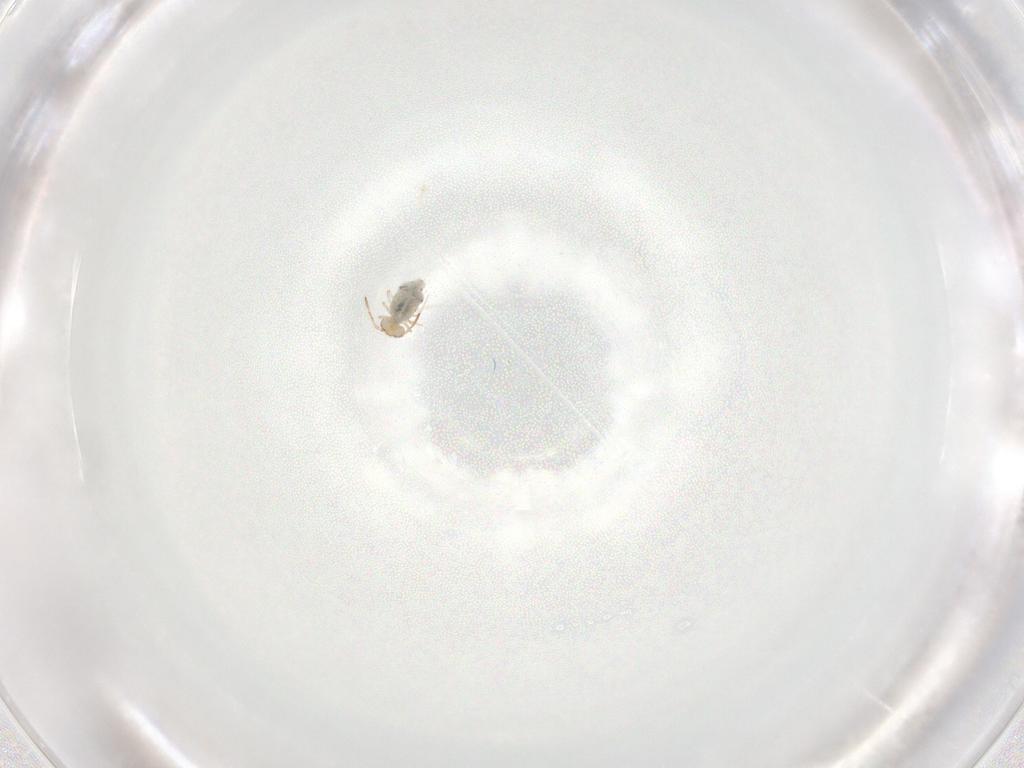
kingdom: Animalia
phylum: Arthropoda
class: Collembola
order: Symphypleona
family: Bourletiellidae
